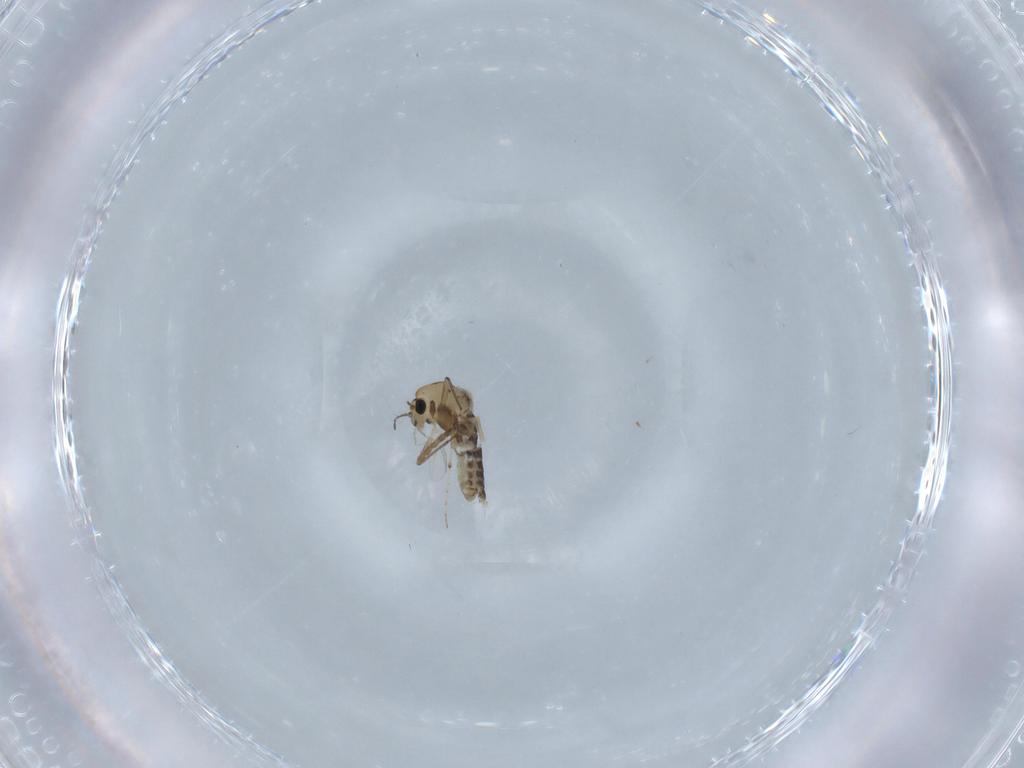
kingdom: Animalia
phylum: Arthropoda
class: Insecta
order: Diptera
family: Chironomidae
